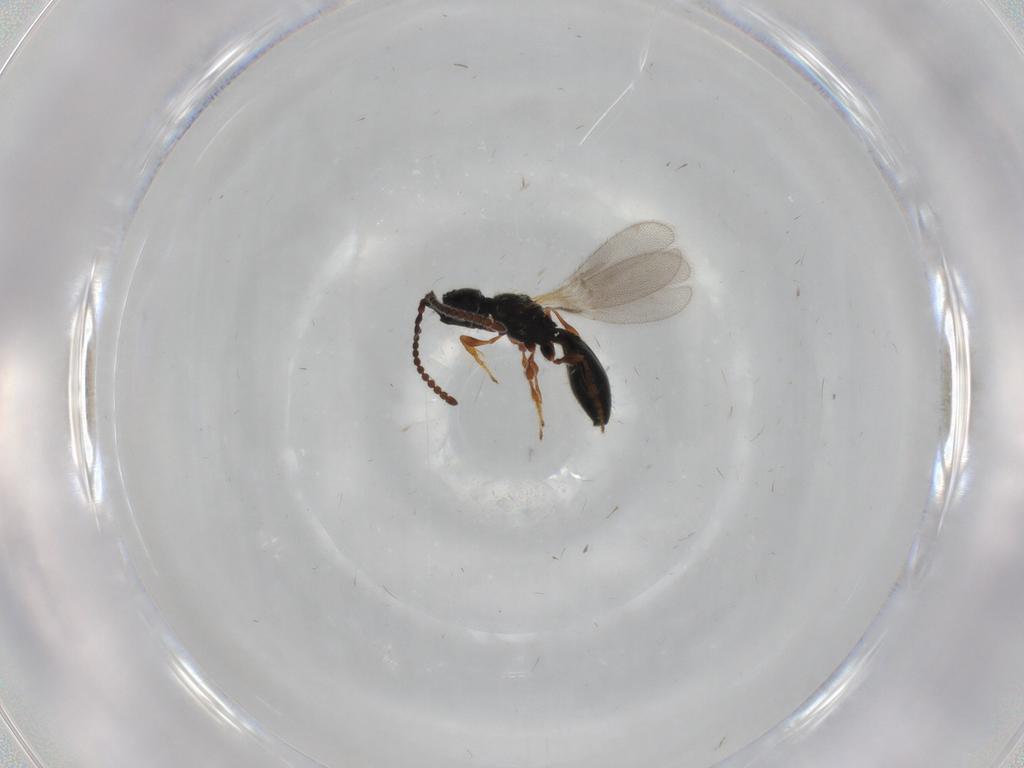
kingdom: Animalia
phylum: Arthropoda
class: Insecta
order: Hymenoptera
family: Diapriidae
